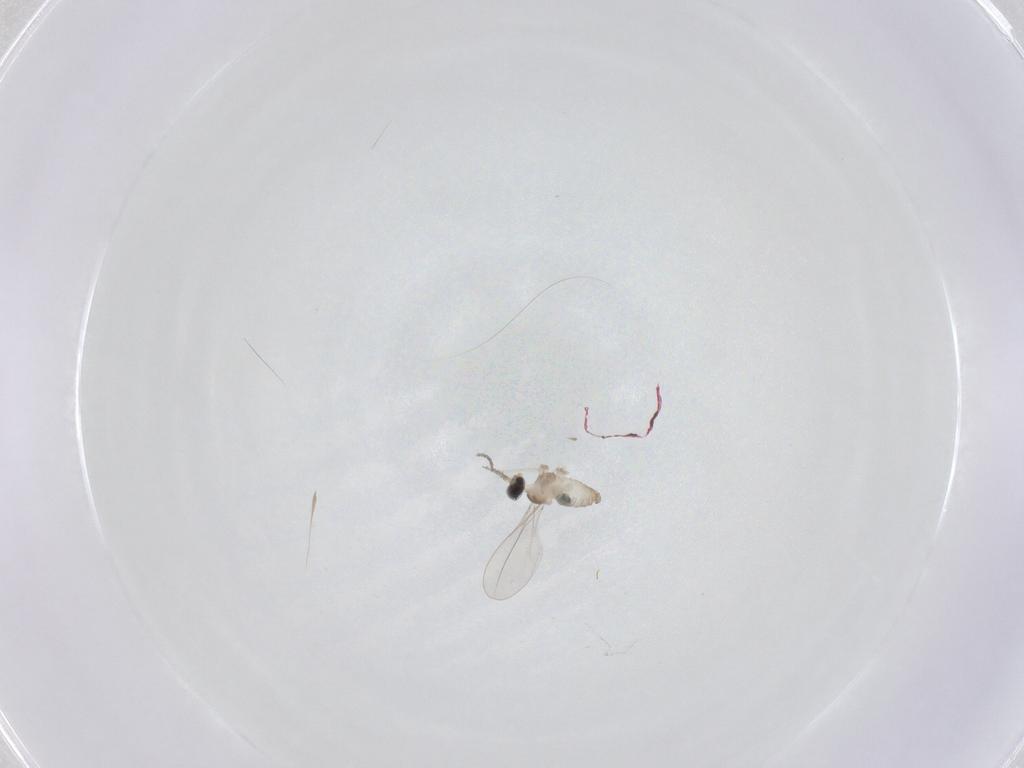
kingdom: Animalia
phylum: Arthropoda
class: Insecta
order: Diptera
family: Cecidomyiidae
